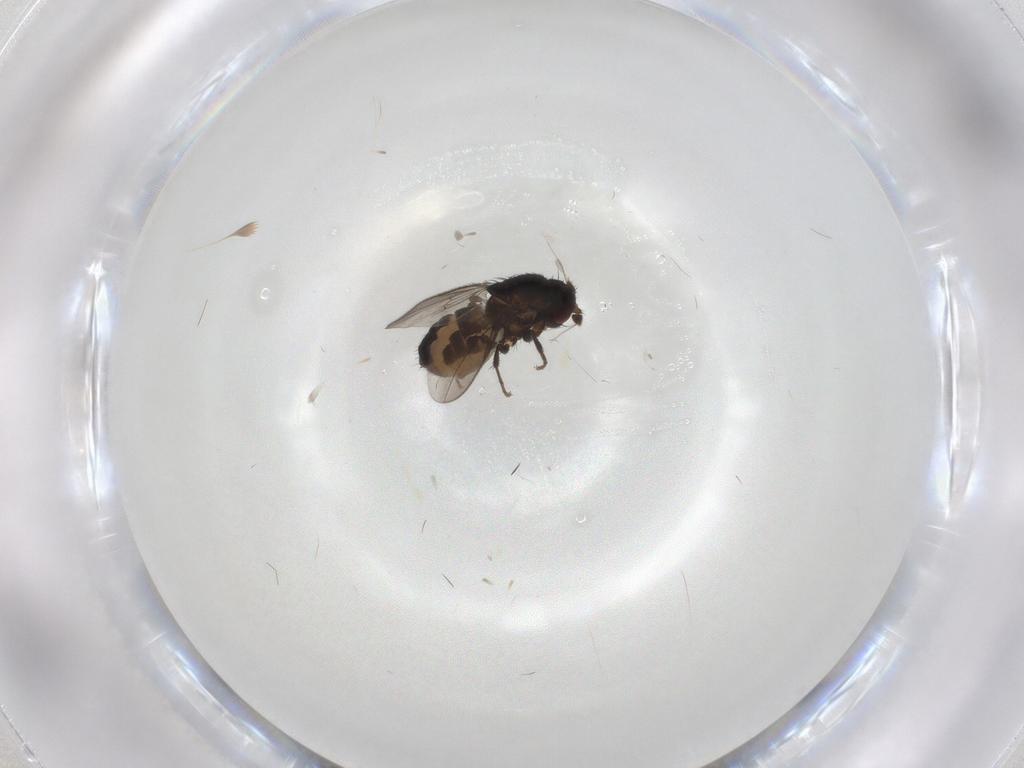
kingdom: Animalia
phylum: Arthropoda
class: Insecta
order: Diptera
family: Sphaeroceridae
